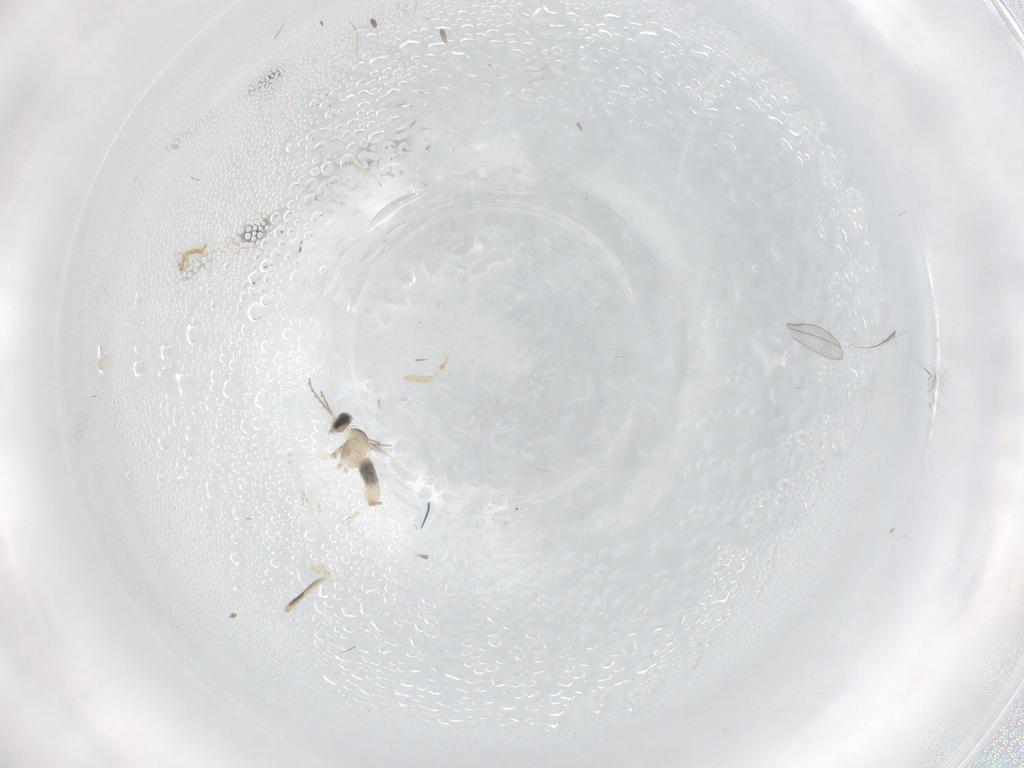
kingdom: Animalia
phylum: Arthropoda
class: Insecta
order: Diptera
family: Cecidomyiidae
